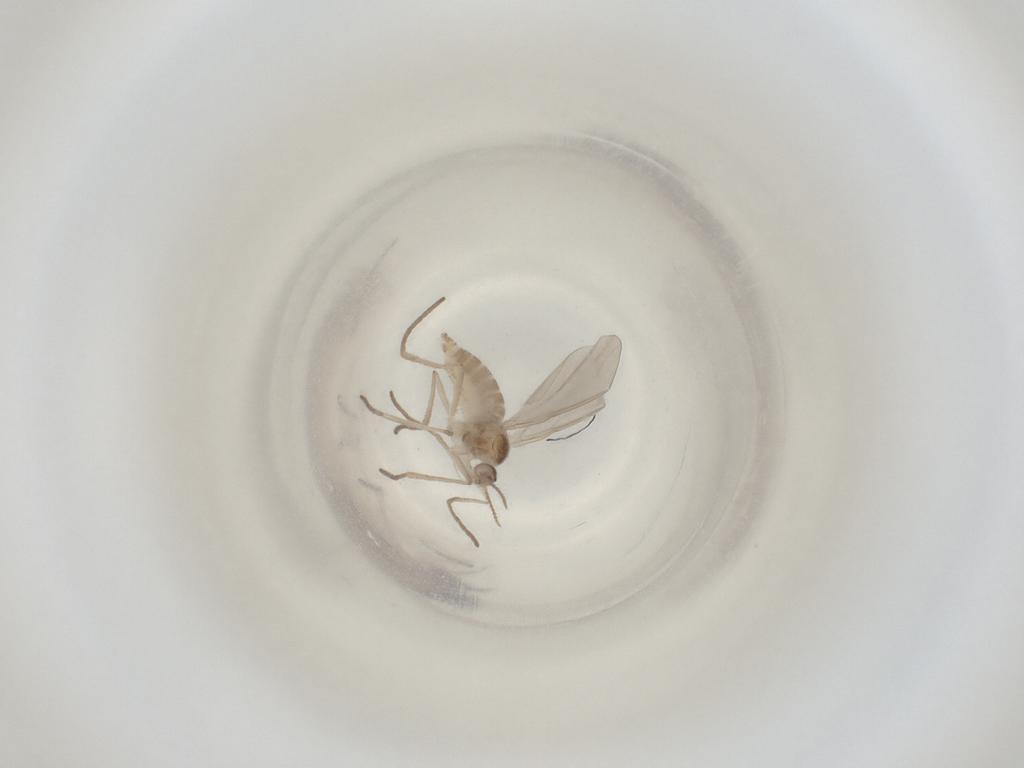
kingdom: Animalia
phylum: Arthropoda
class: Insecta
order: Diptera
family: Cecidomyiidae
